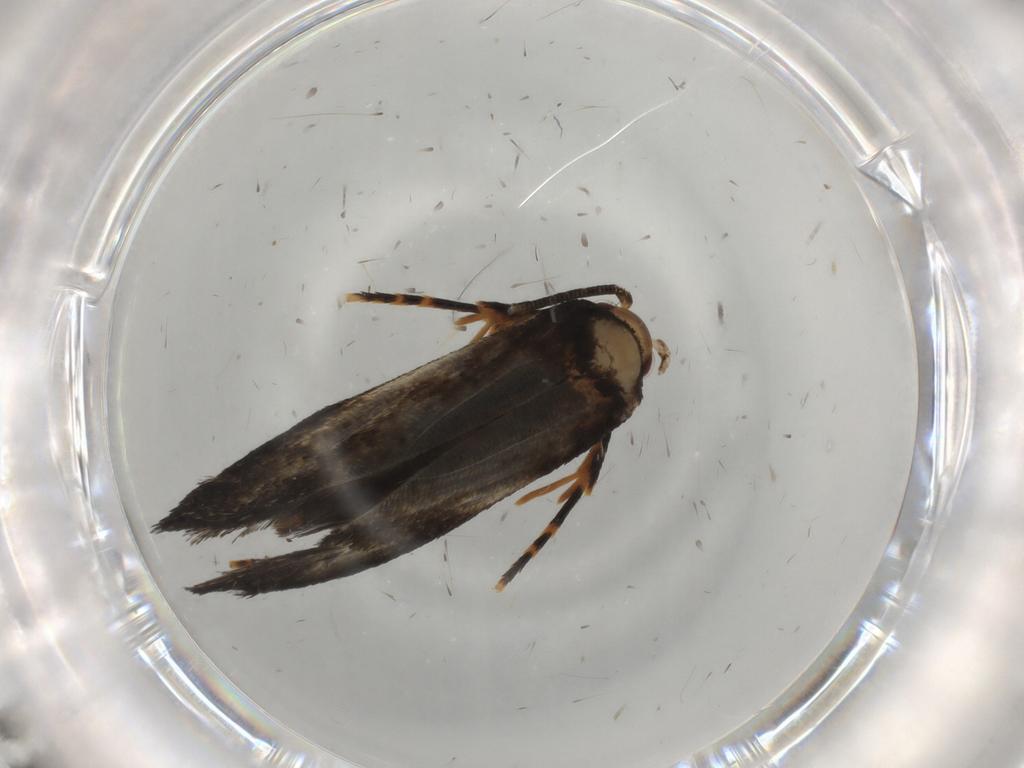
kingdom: Animalia
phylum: Arthropoda
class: Insecta
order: Lepidoptera
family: Tineidae
